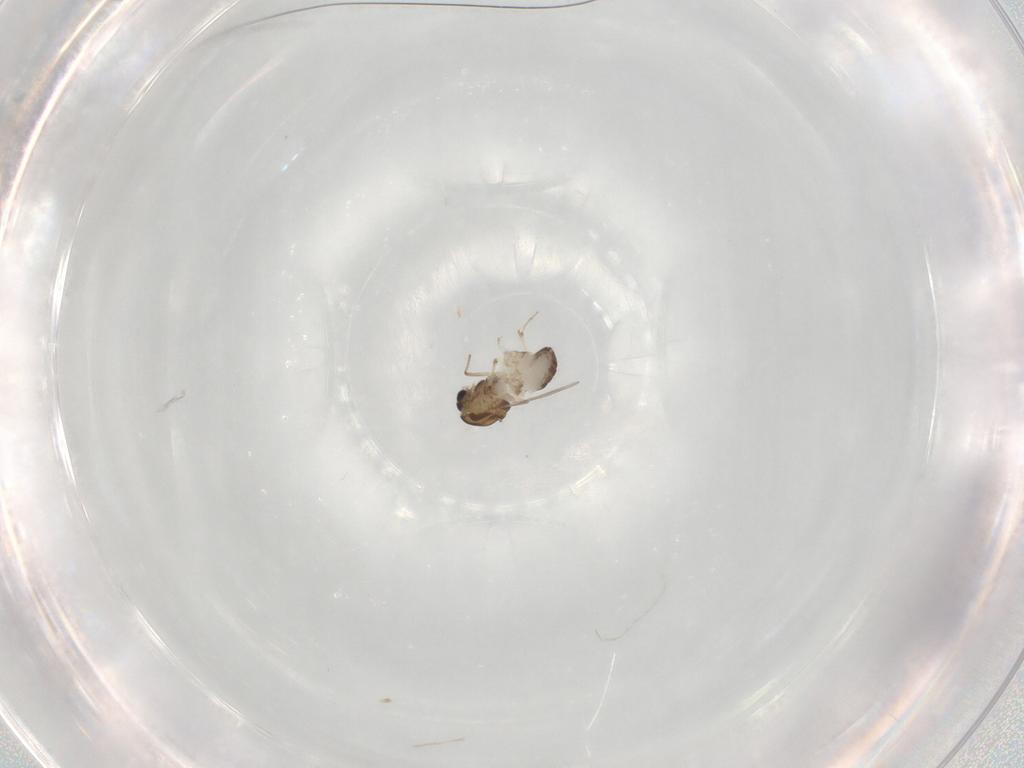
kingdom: Animalia
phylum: Arthropoda
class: Insecta
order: Diptera
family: Chironomidae
